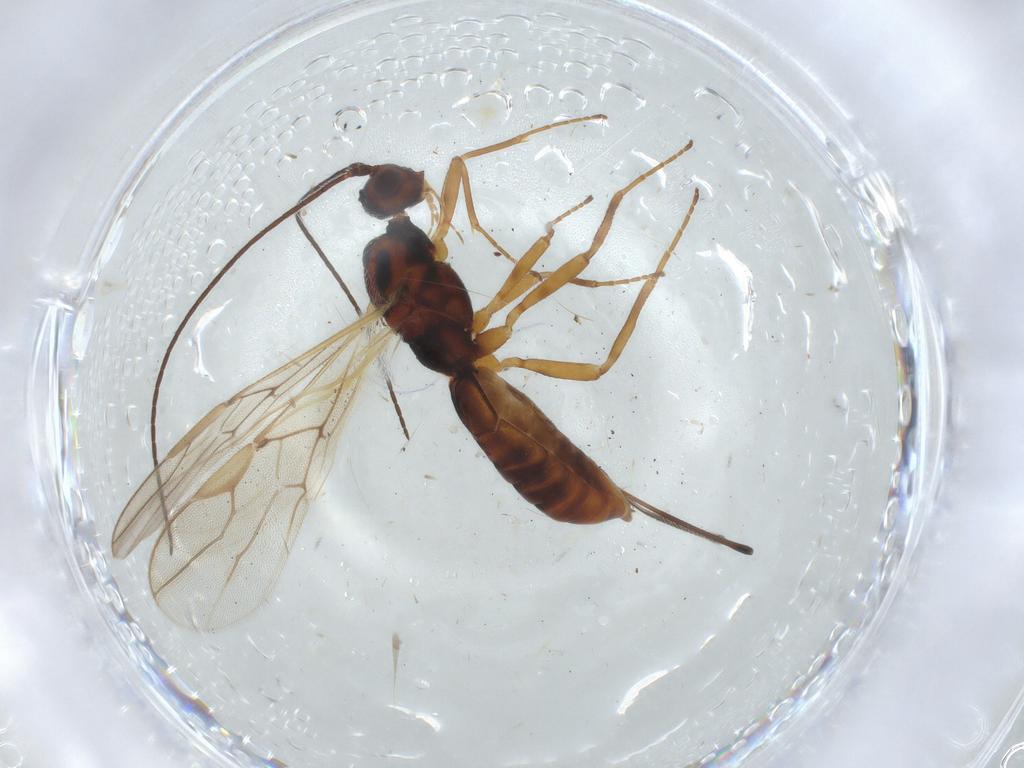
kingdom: Animalia
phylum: Arthropoda
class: Insecta
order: Hymenoptera
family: Braconidae
